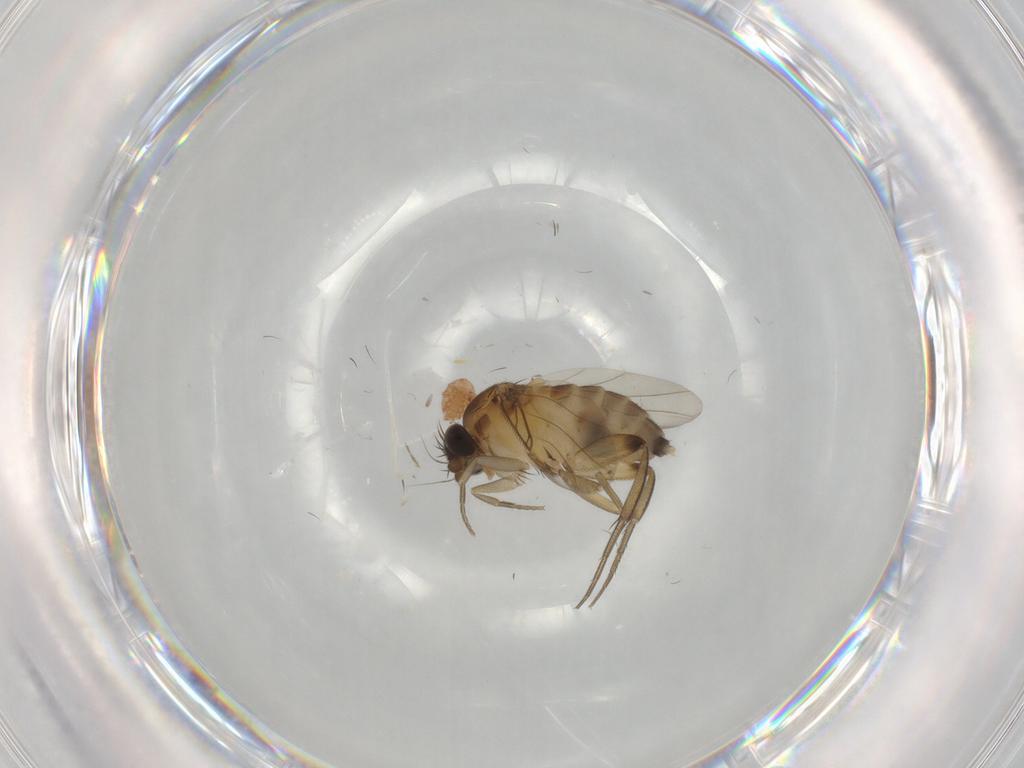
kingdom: Animalia
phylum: Arthropoda
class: Insecta
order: Diptera
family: Phoridae
